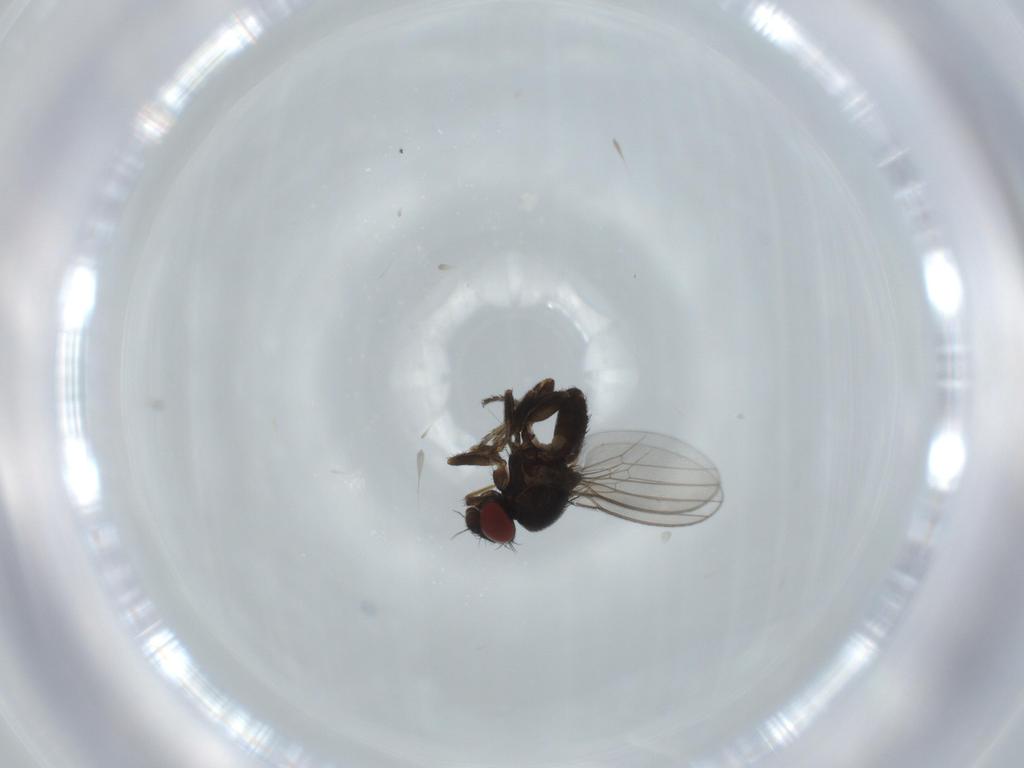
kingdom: Animalia
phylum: Arthropoda
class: Insecta
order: Diptera
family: Milichiidae
